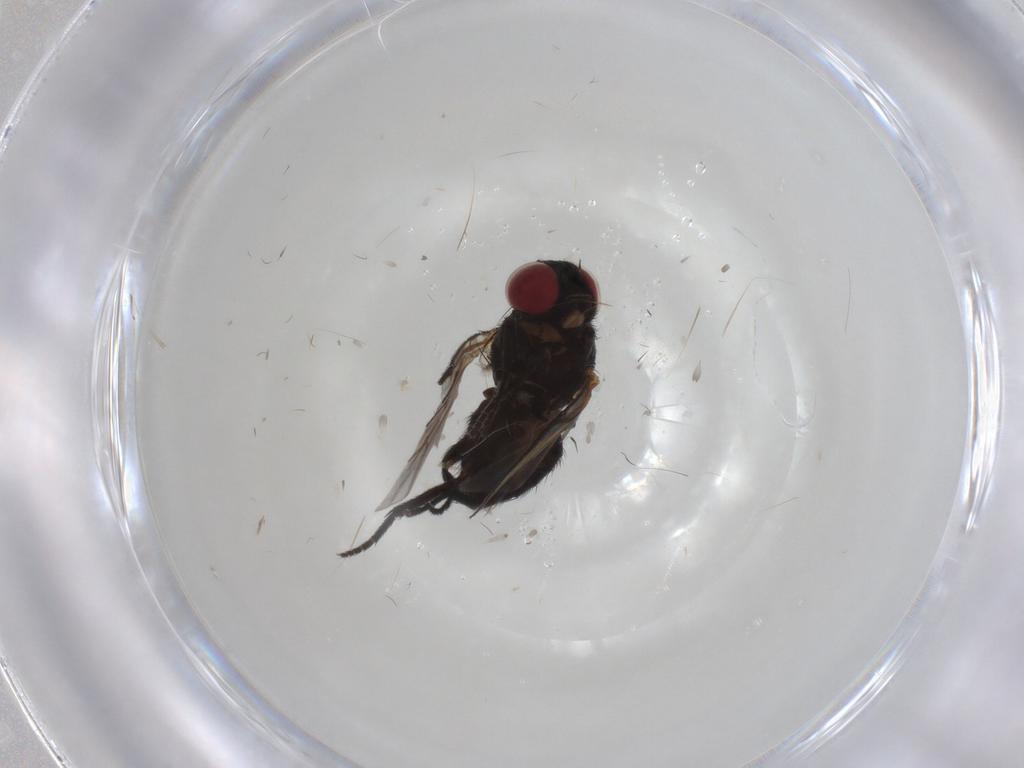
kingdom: Animalia
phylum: Arthropoda
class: Insecta
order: Diptera
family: Agromyzidae
